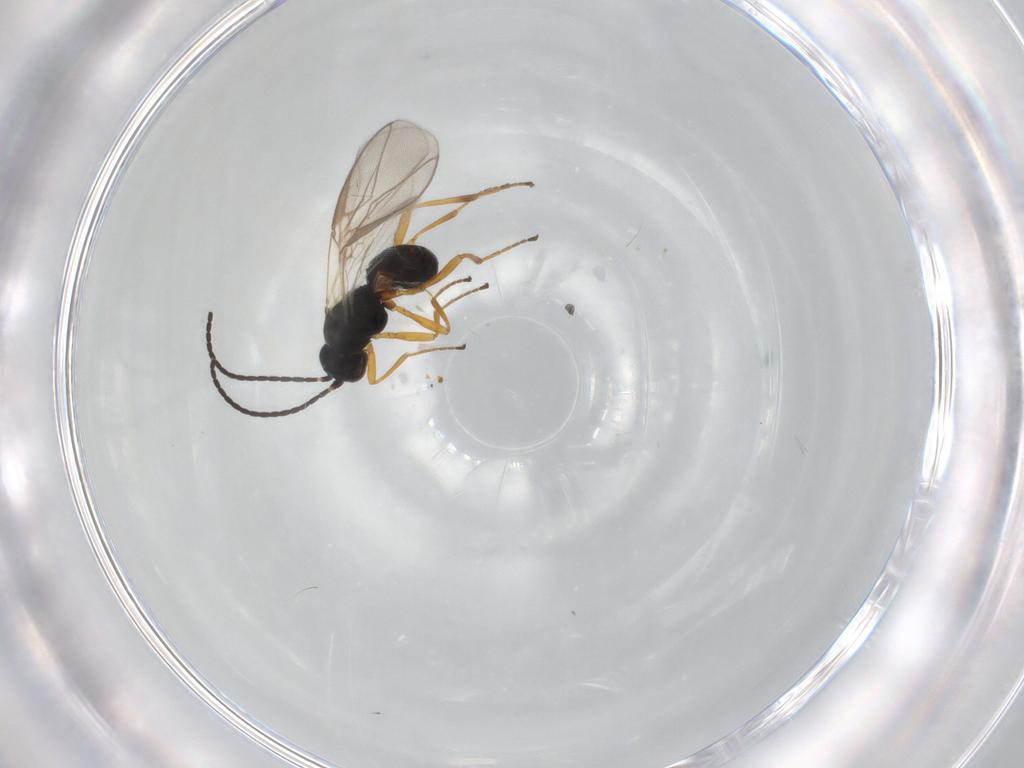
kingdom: Animalia
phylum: Arthropoda
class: Insecta
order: Hymenoptera
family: Braconidae
